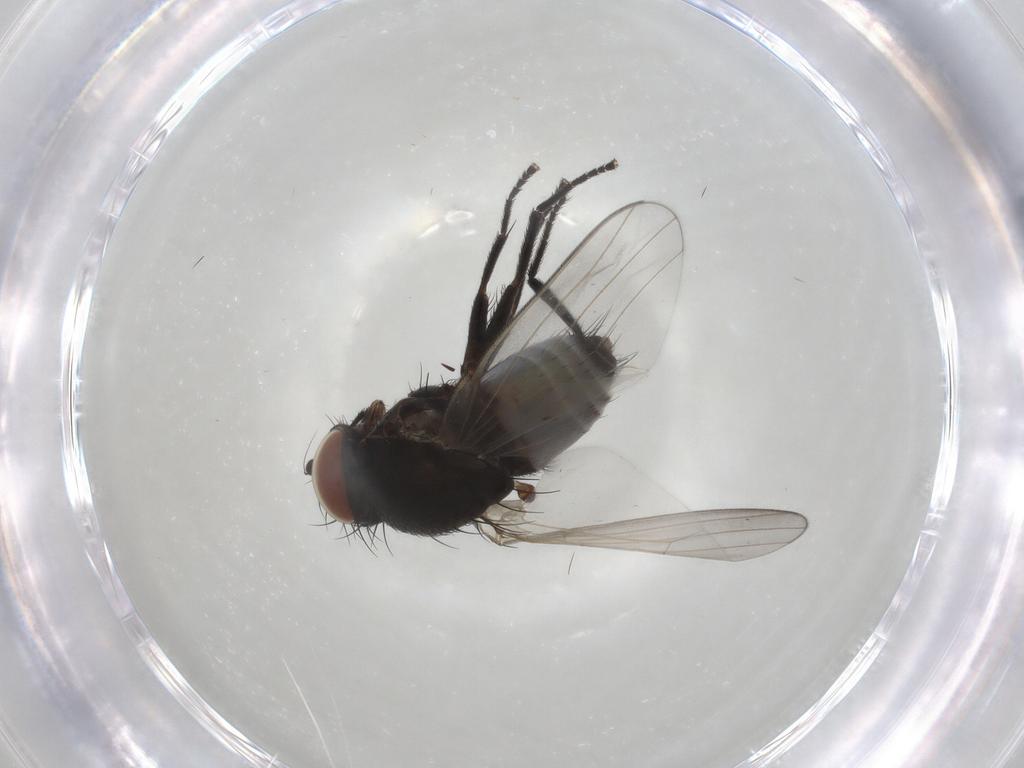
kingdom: Animalia
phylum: Arthropoda
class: Insecta
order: Diptera
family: Milichiidae
